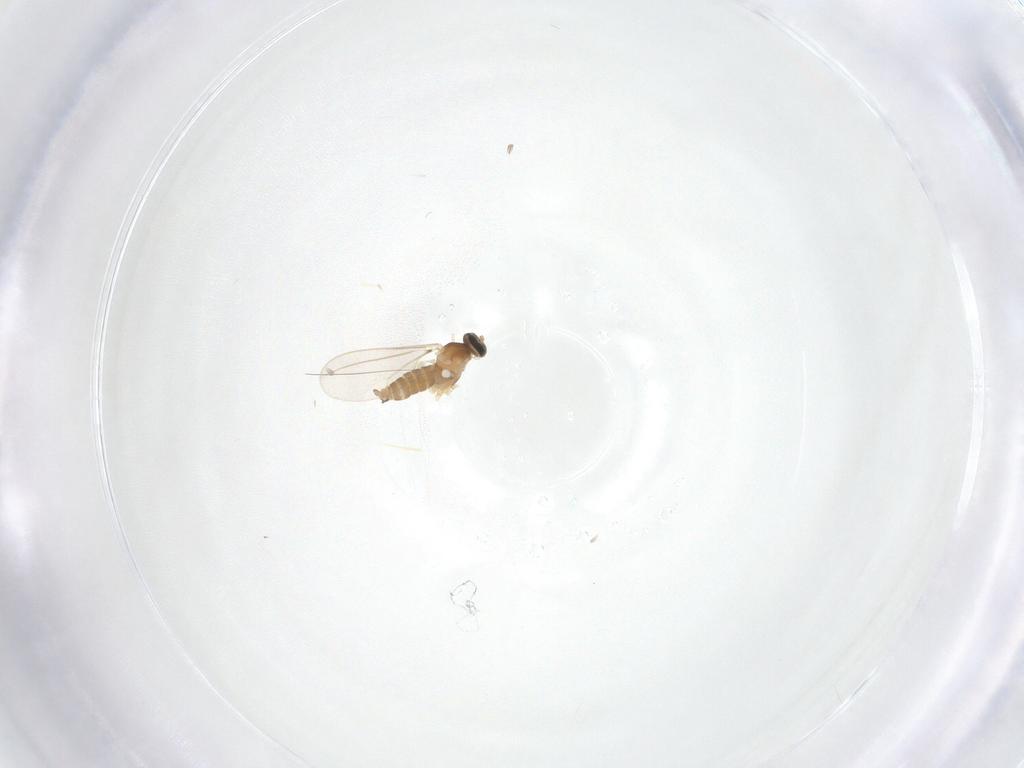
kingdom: Animalia
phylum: Arthropoda
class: Insecta
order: Diptera
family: Cecidomyiidae
